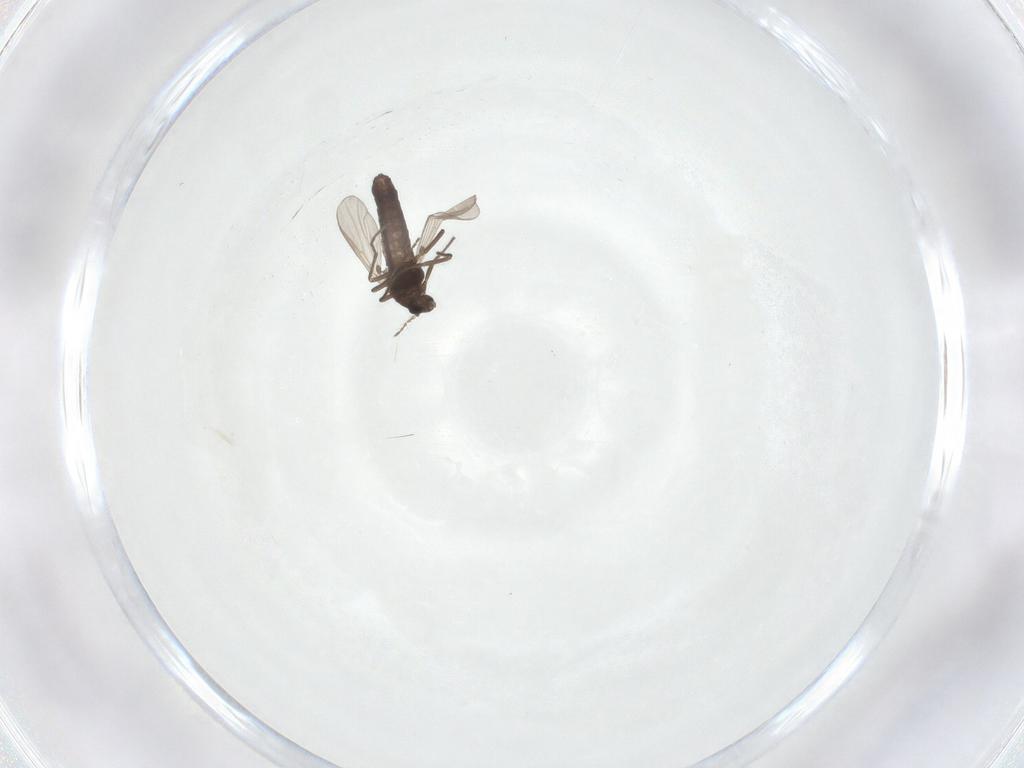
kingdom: Animalia
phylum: Arthropoda
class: Insecta
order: Diptera
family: Chironomidae
